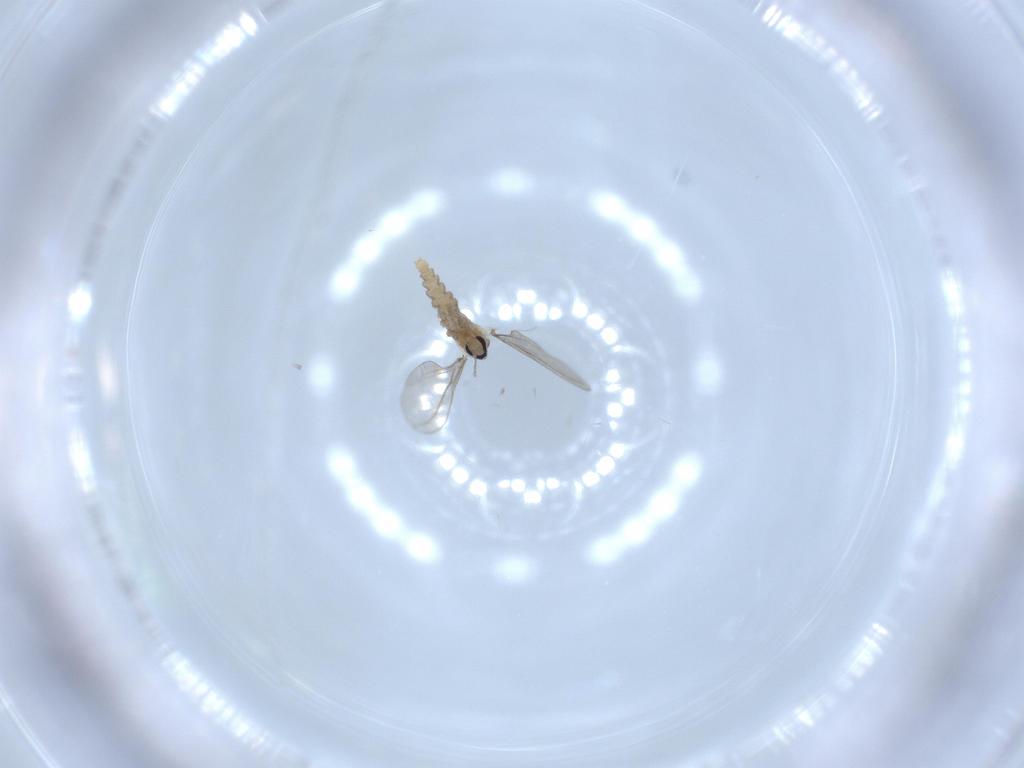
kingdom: Animalia
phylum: Arthropoda
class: Insecta
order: Diptera
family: Cecidomyiidae
